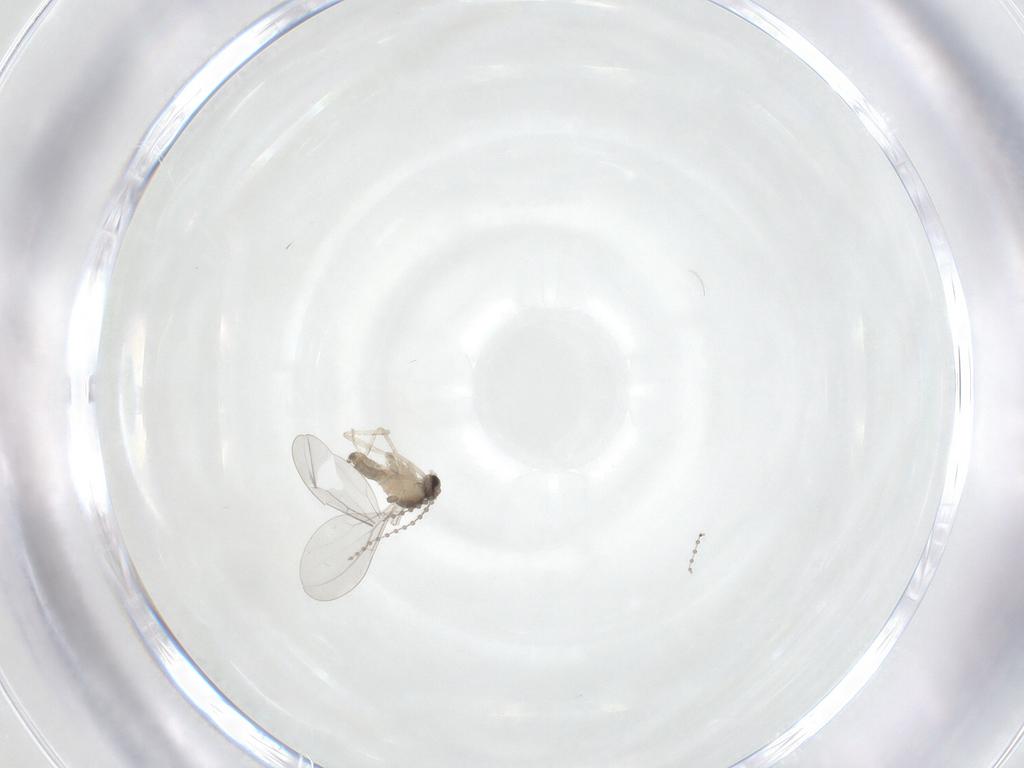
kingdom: Animalia
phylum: Arthropoda
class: Insecta
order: Diptera
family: Cecidomyiidae
